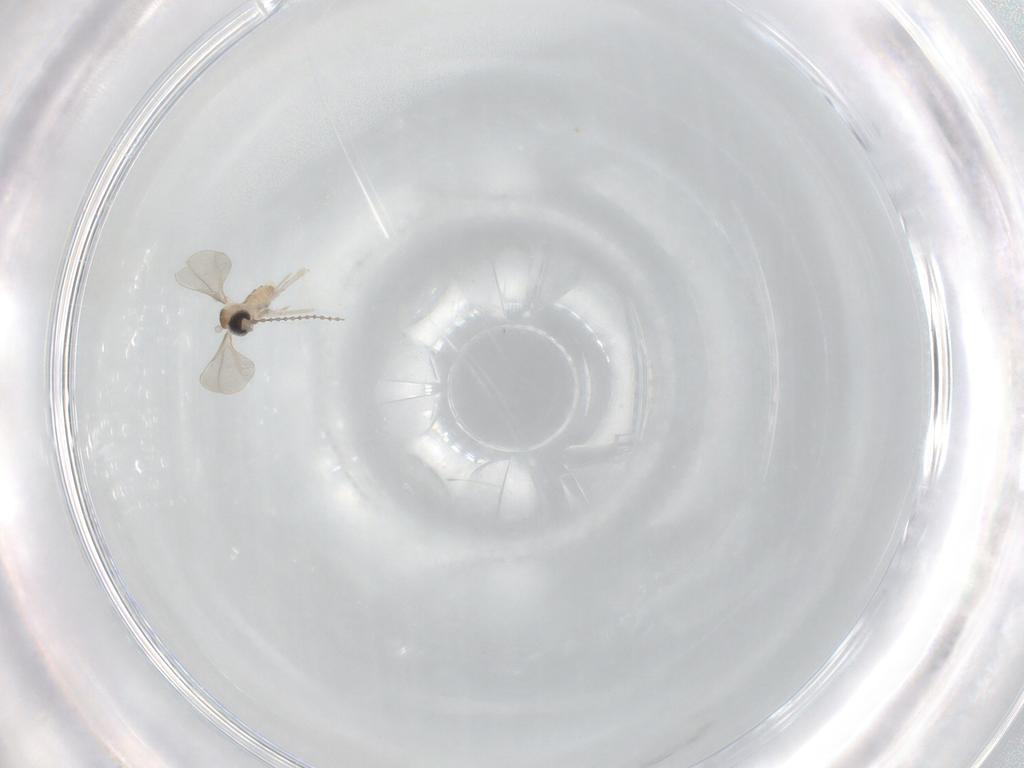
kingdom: Animalia
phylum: Arthropoda
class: Insecta
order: Diptera
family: Cecidomyiidae
